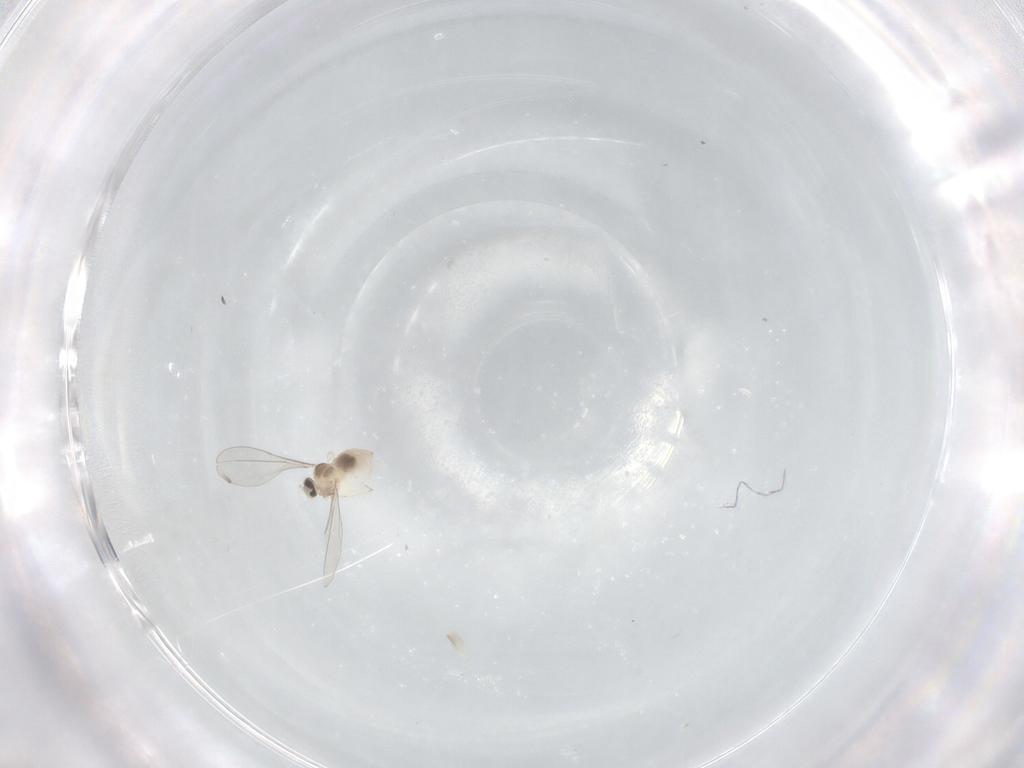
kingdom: Animalia
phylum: Arthropoda
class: Insecta
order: Diptera
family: Cecidomyiidae
